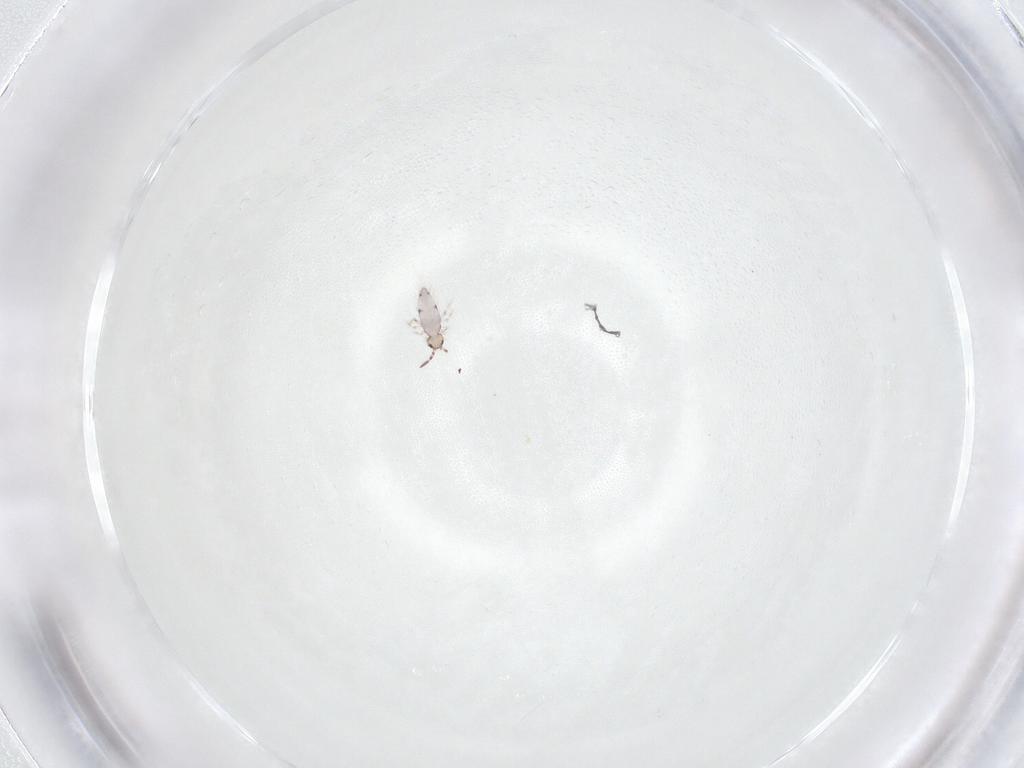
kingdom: Animalia
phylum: Arthropoda
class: Collembola
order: Entomobryomorpha
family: Entomobryidae
